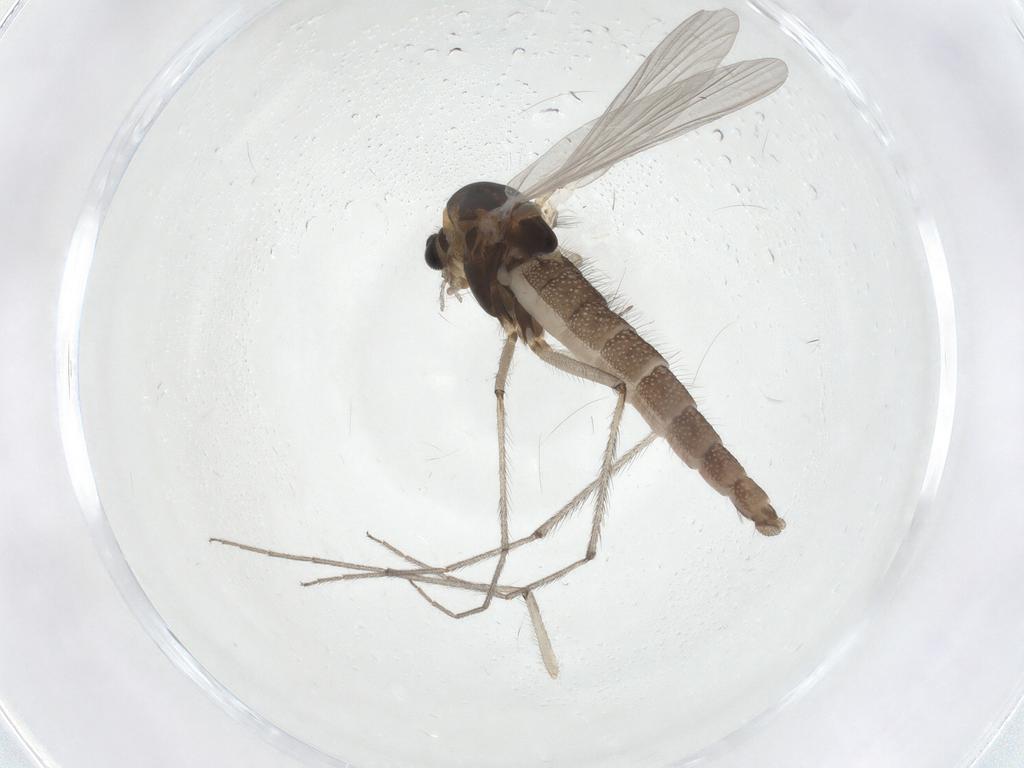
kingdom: Animalia
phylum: Arthropoda
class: Insecta
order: Diptera
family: Chironomidae
